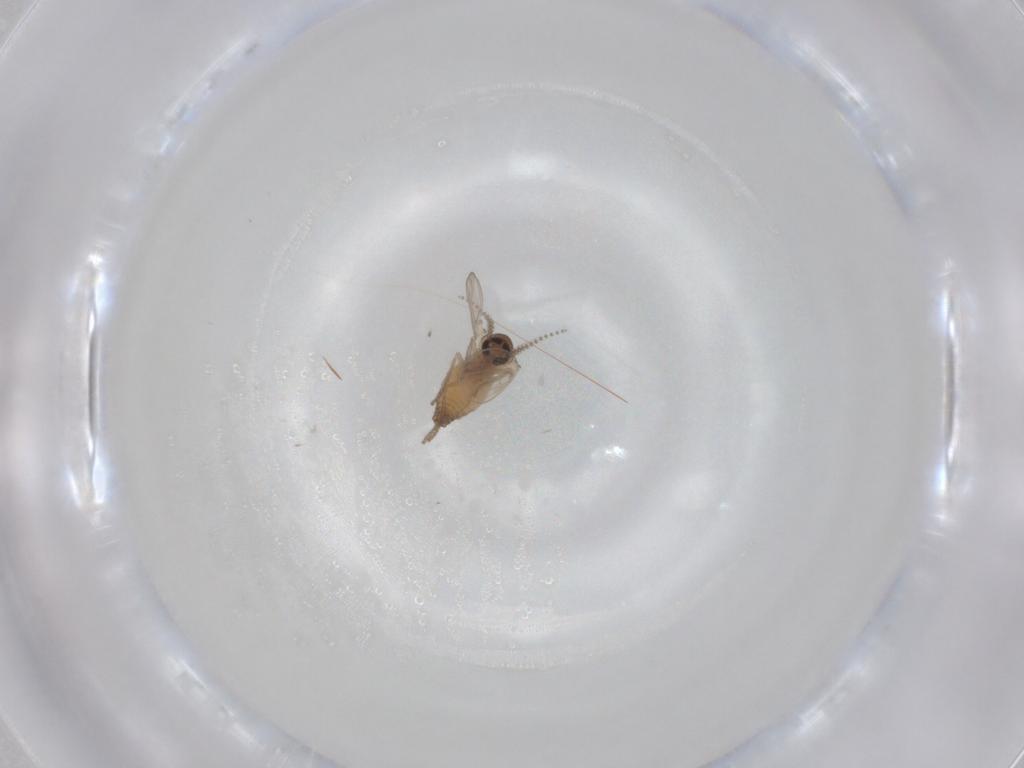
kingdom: Animalia
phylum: Arthropoda
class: Insecta
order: Diptera
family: Psychodidae
